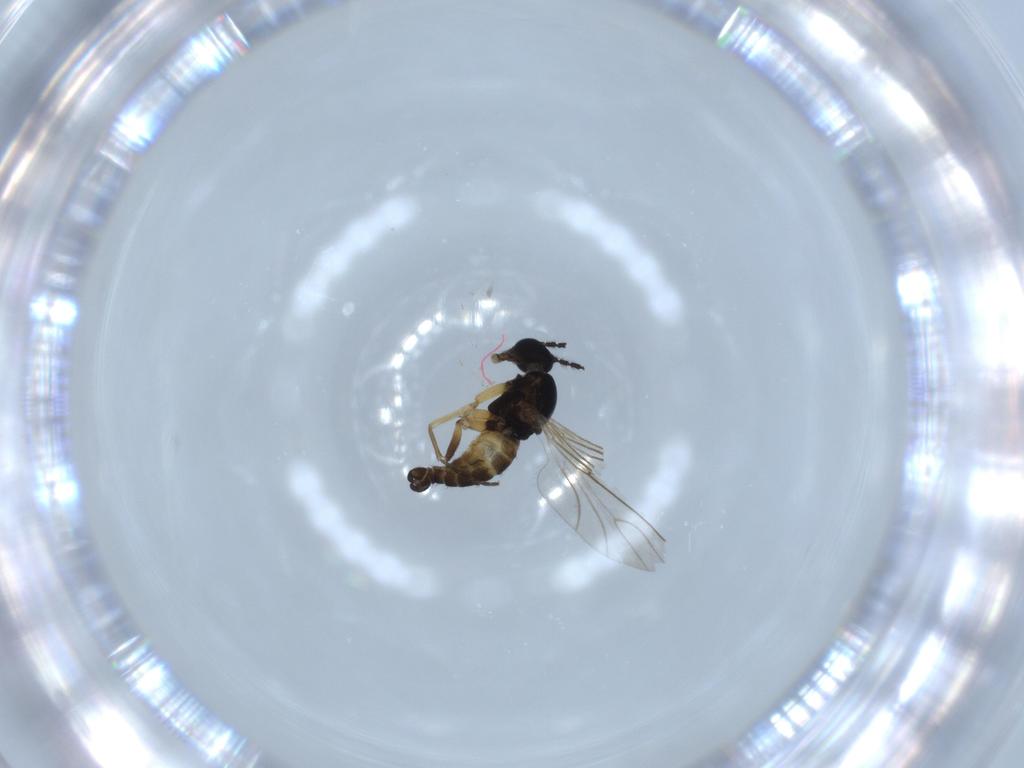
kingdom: Animalia
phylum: Arthropoda
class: Insecta
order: Diptera
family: Sciaridae
